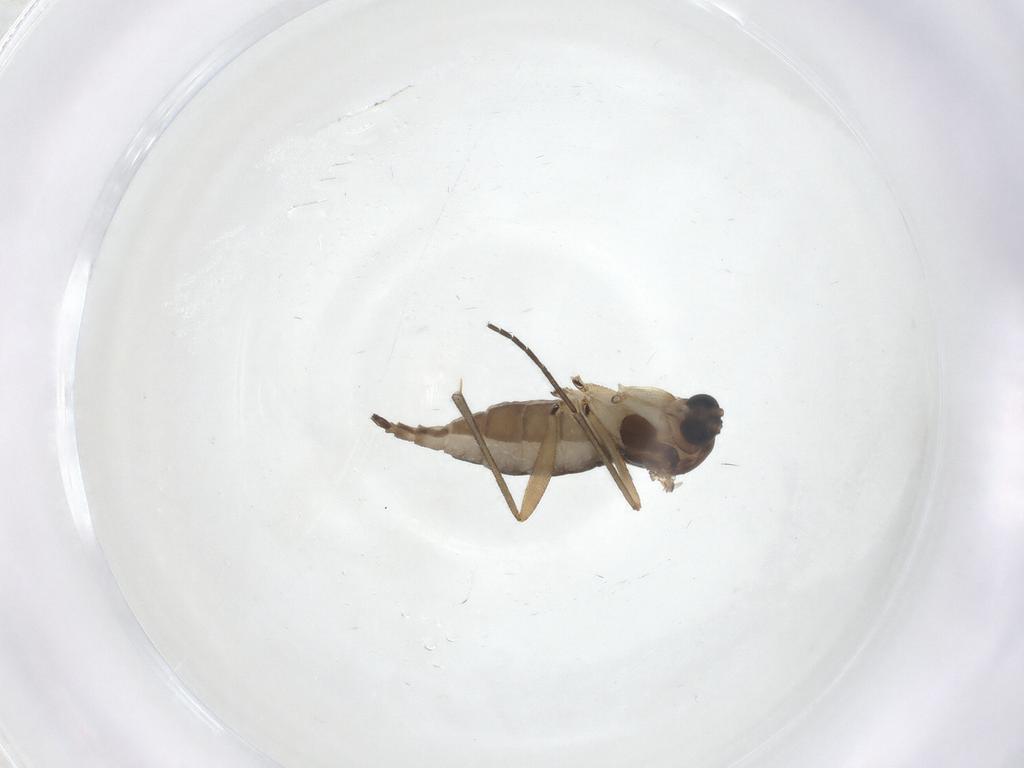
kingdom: Animalia
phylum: Arthropoda
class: Insecta
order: Diptera
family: Sciaridae
